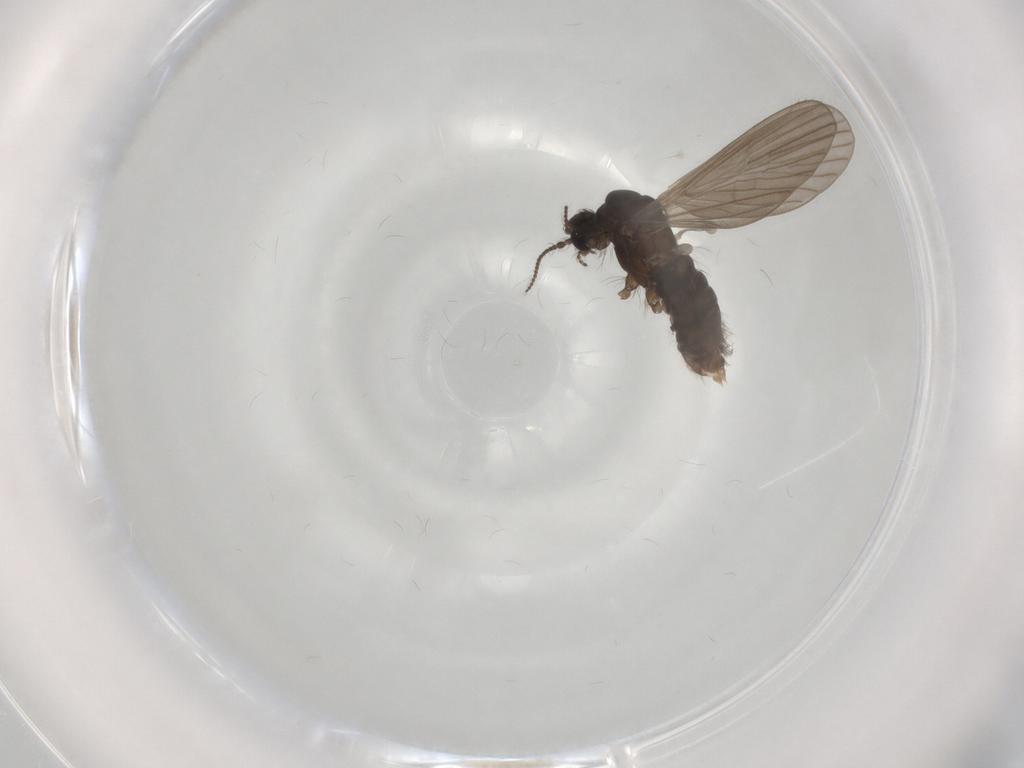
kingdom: Animalia
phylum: Arthropoda
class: Insecta
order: Diptera
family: Limoniidae
